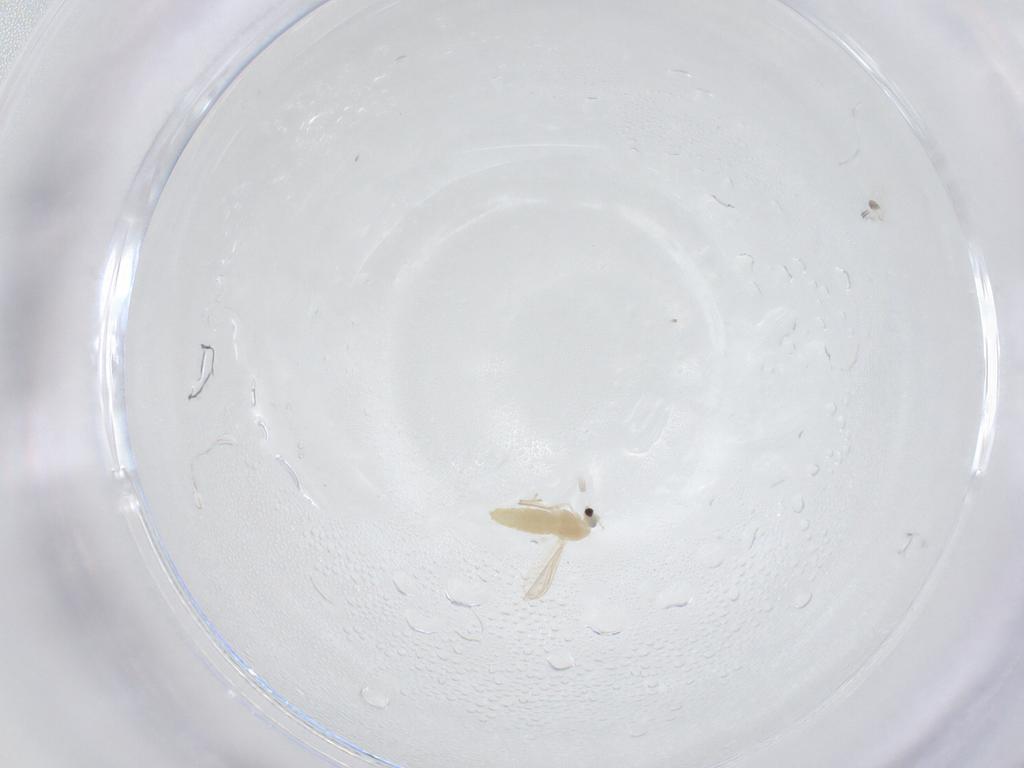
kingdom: Animalia
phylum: Arthropoda
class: Insecta
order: Diptera
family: Chironomidae
